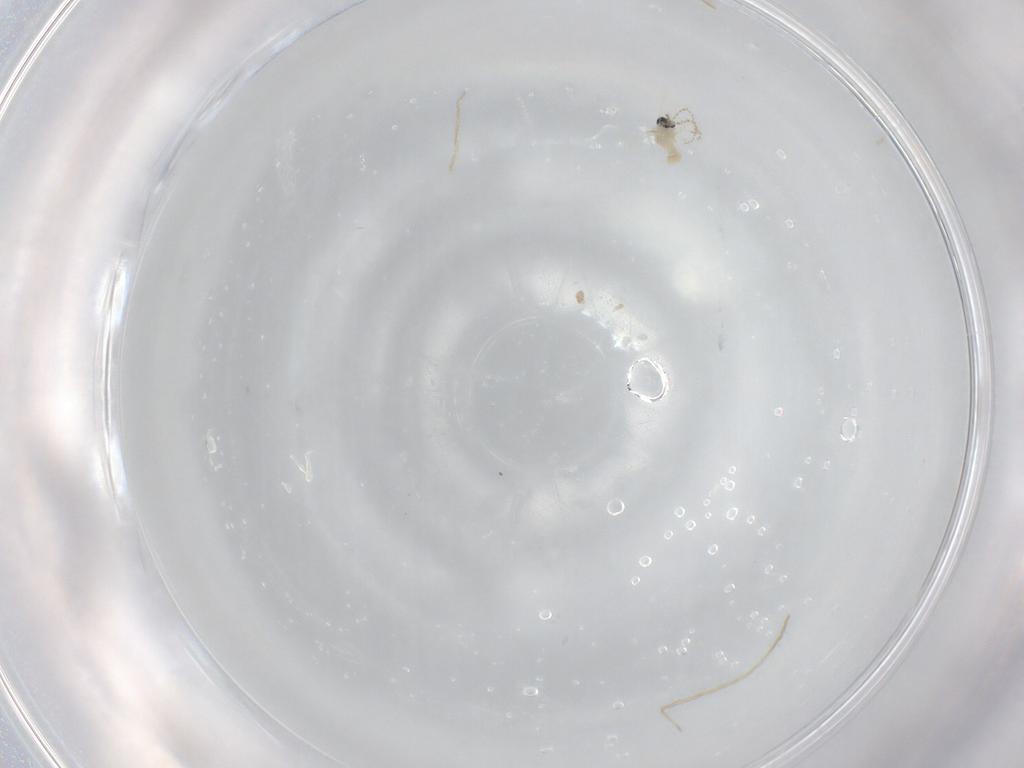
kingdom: Animalia
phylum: Arthropoda
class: Insecta
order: Diptera
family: Cecidomyiidae
